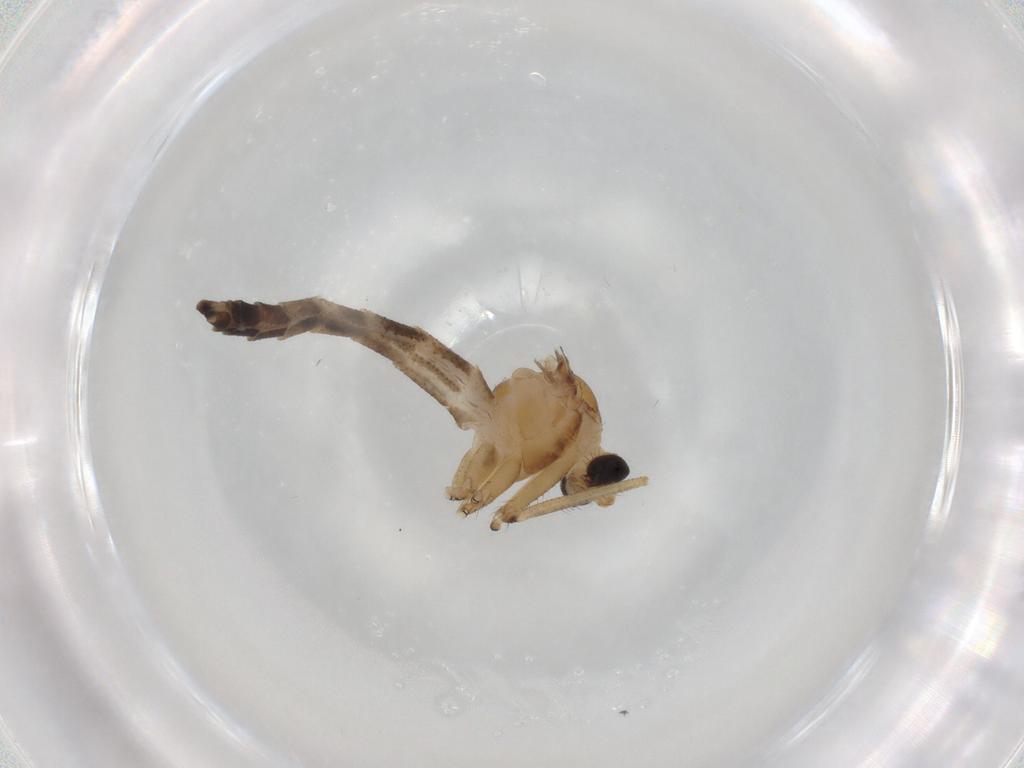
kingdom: Animalia
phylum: Arthropoda
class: Insecta
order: Diptera
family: Keroplatidae
